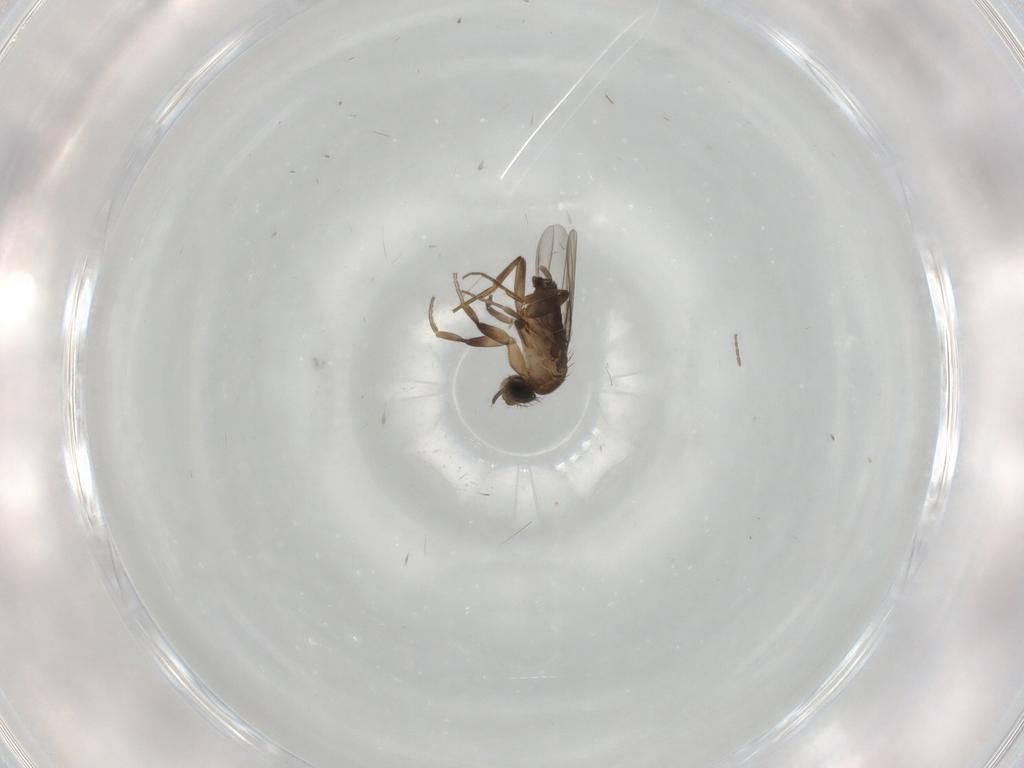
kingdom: Animalia
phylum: Arthropoda
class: Insecta
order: Diptera
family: Phoridae
